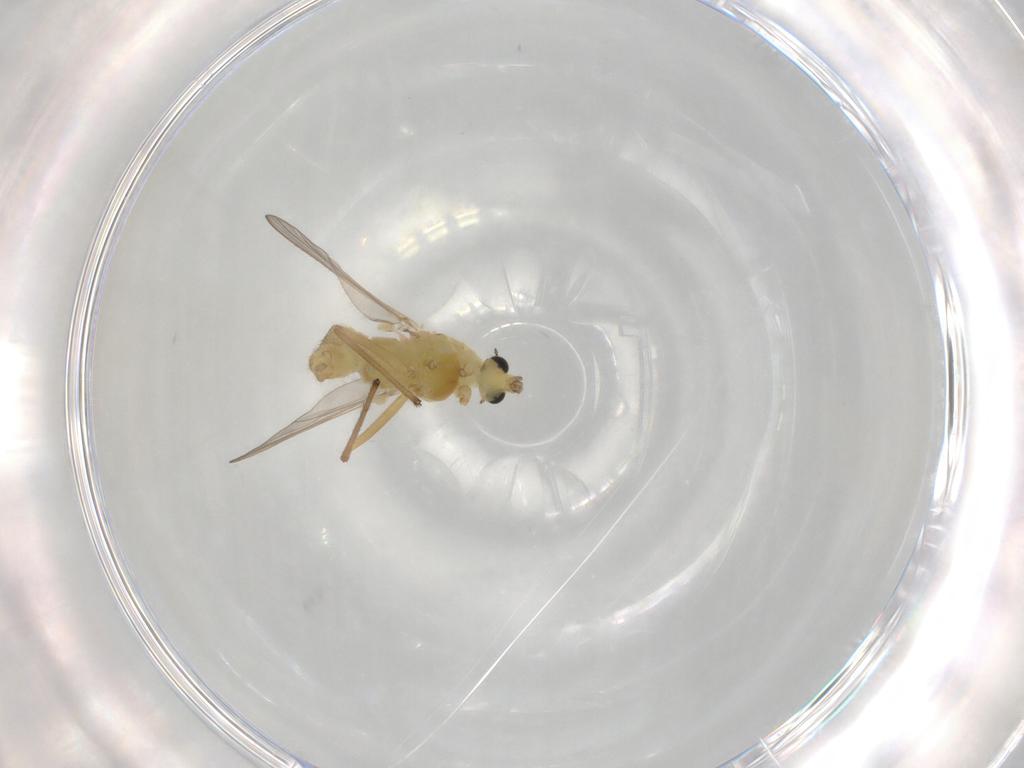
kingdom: Animalia
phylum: Arthropoda
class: Insecta
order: Diptera
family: Chironomidae
